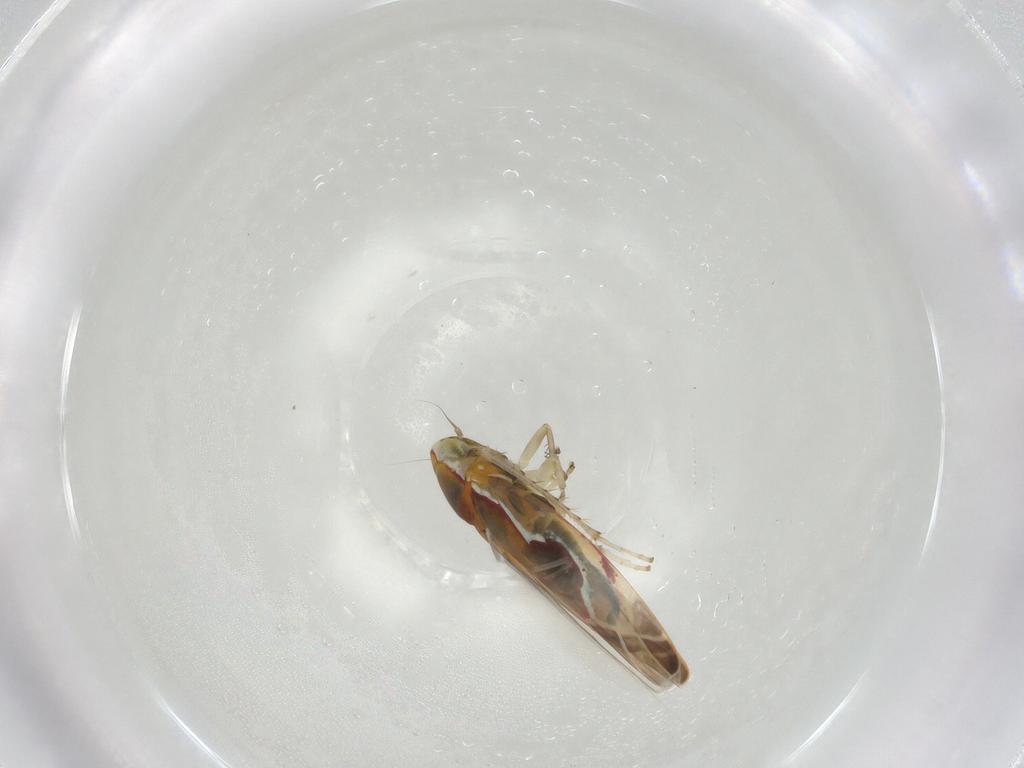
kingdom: Animalia
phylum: Arthropoda
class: Insecta
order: Hemiptera
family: Cicadellidae
